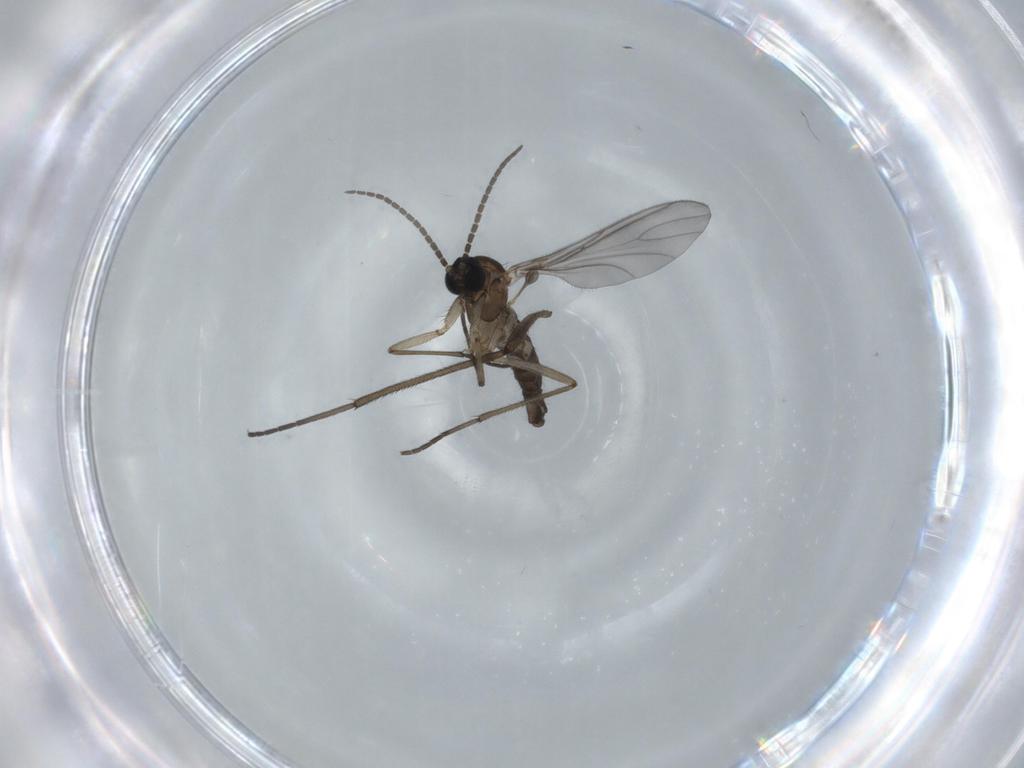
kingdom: Animalia
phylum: Arthropoda
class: Insecta
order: Diptera
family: Sciaridae
